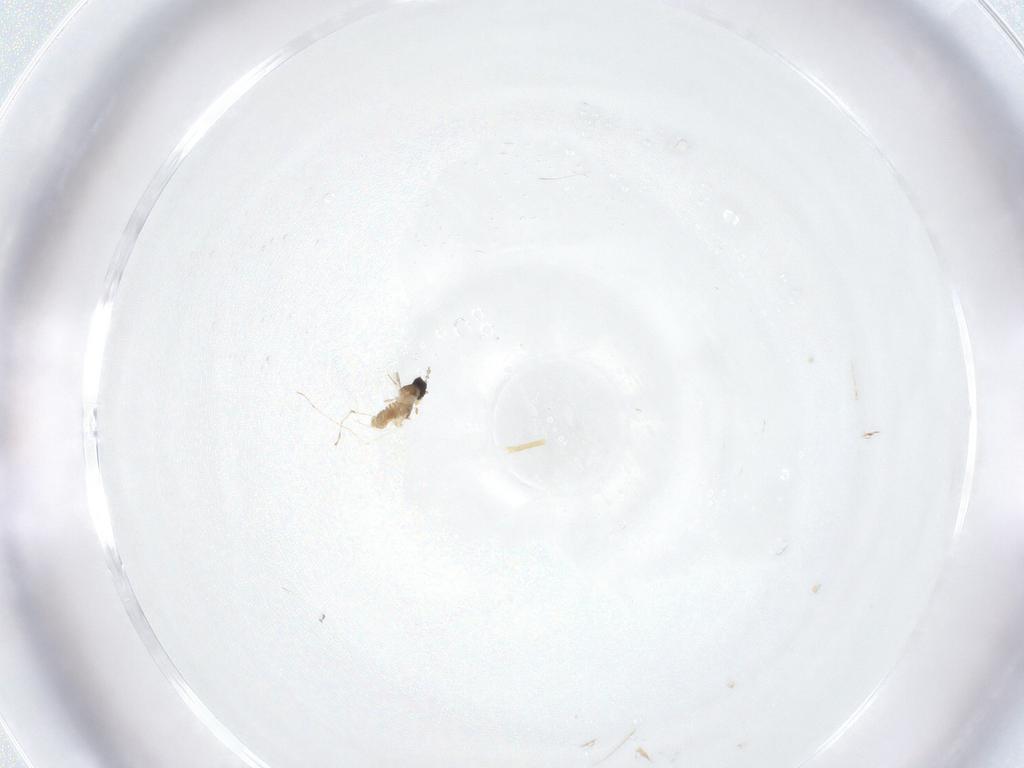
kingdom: Animalia
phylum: Arthropoda
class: Insecta
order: Diptera
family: Cecidomyiidae
